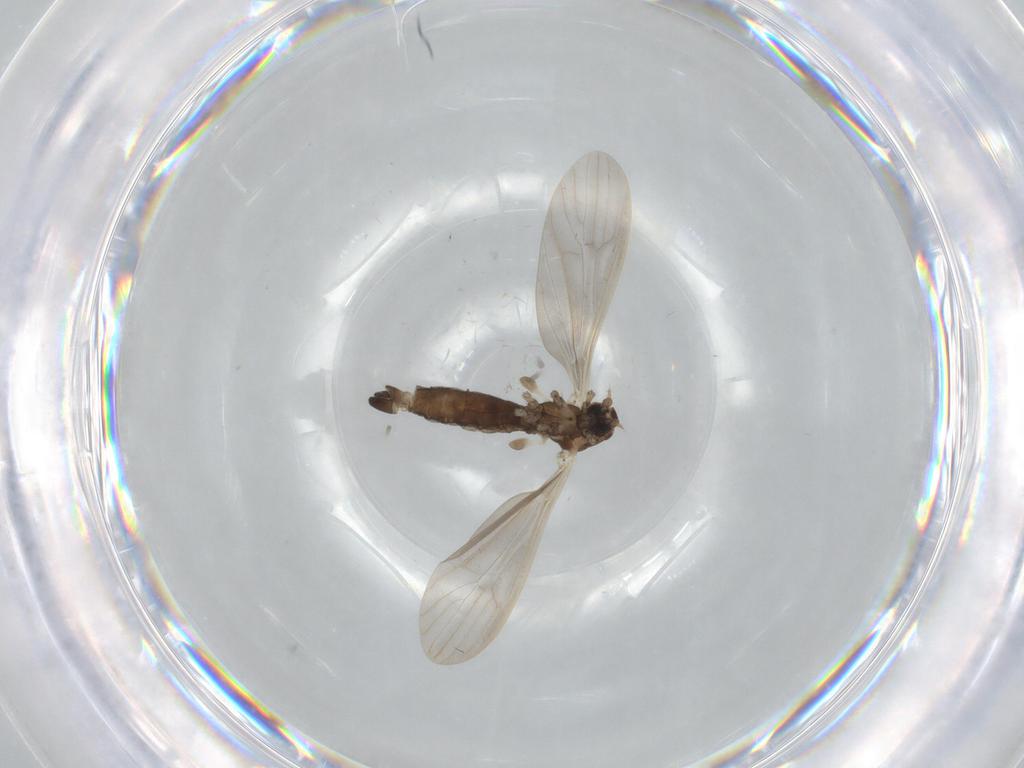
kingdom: Animalia
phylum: Arthropoda
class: Insecta
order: Diptera
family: Limoniidae
